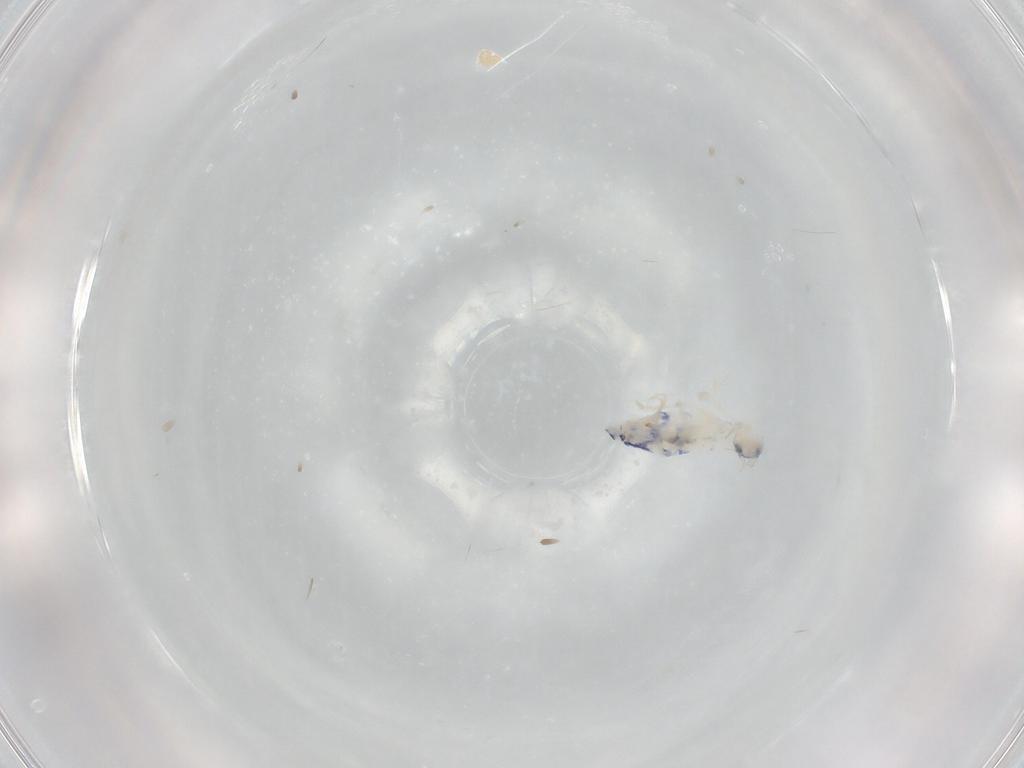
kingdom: Animalia
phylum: Arthropoda
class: Collembola
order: Entomobryomorpha
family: Entomobryidae
